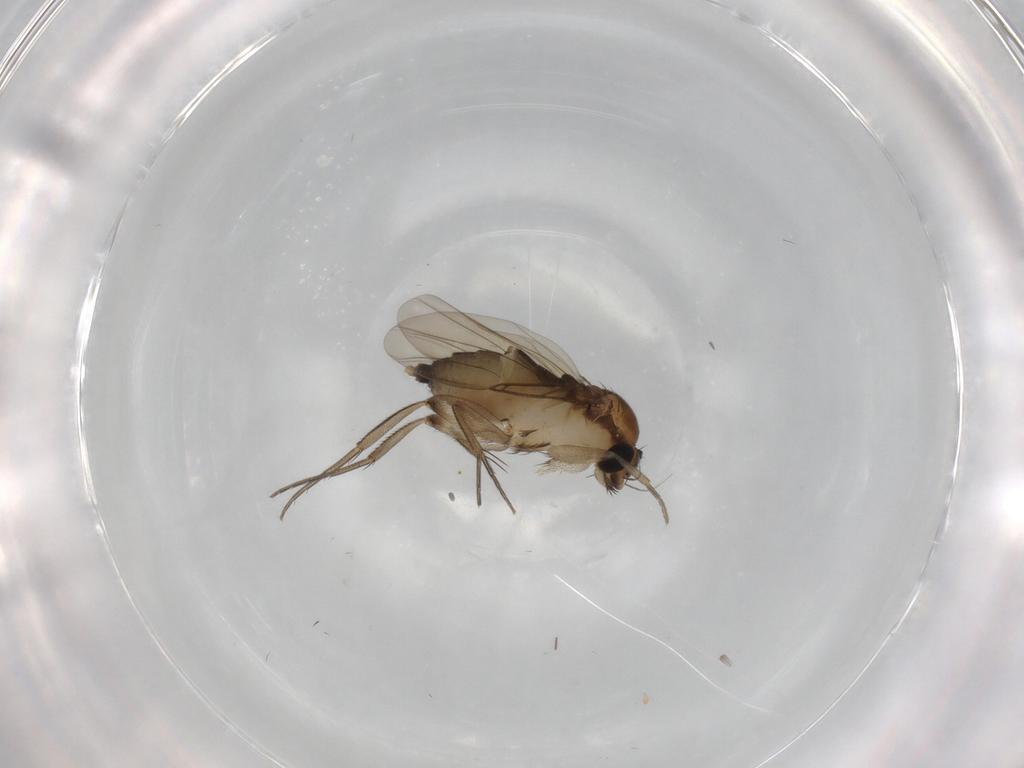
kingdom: Animalia
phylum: Arthropoda
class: Insecta
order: Diptera
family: Phoridae
